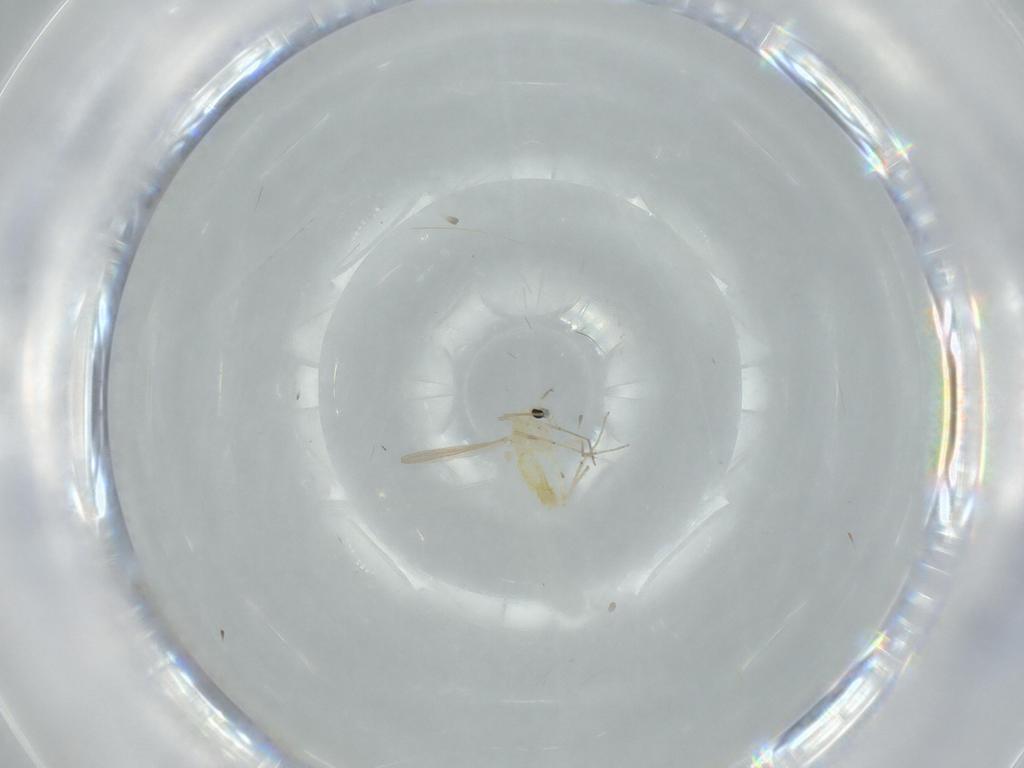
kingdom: Animalia
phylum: Arthropoda
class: Insecta
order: Diptera
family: Chironomidae
